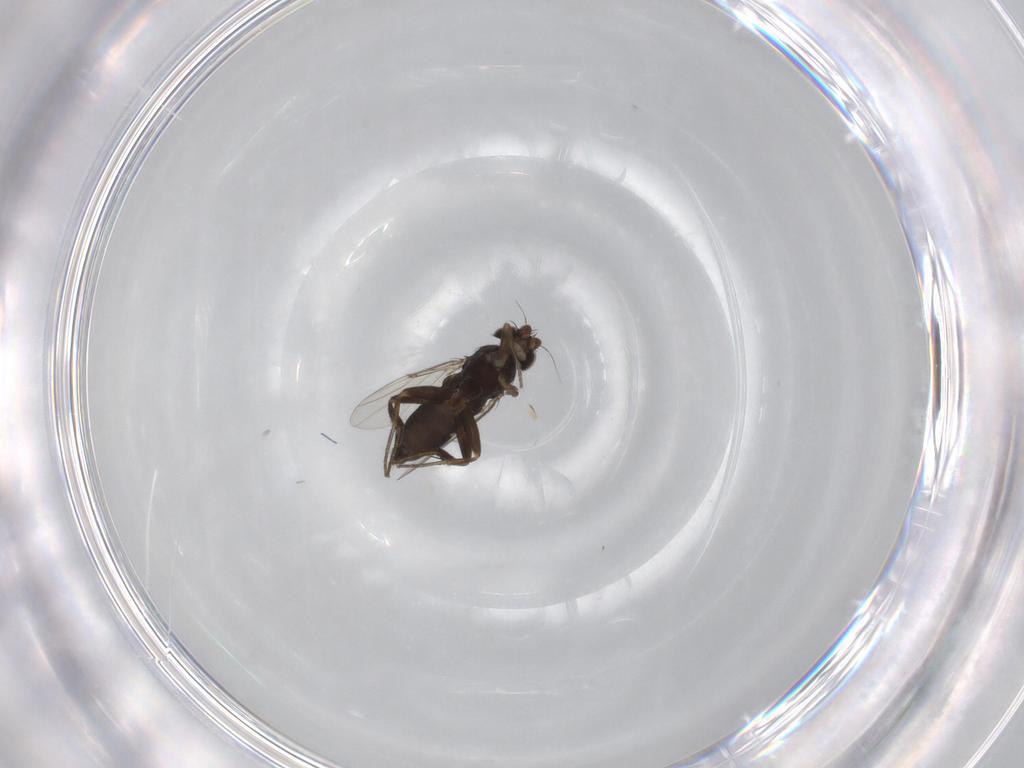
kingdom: Animalia
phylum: Arthropoda
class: Insecta
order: Diptera
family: Phoridae
